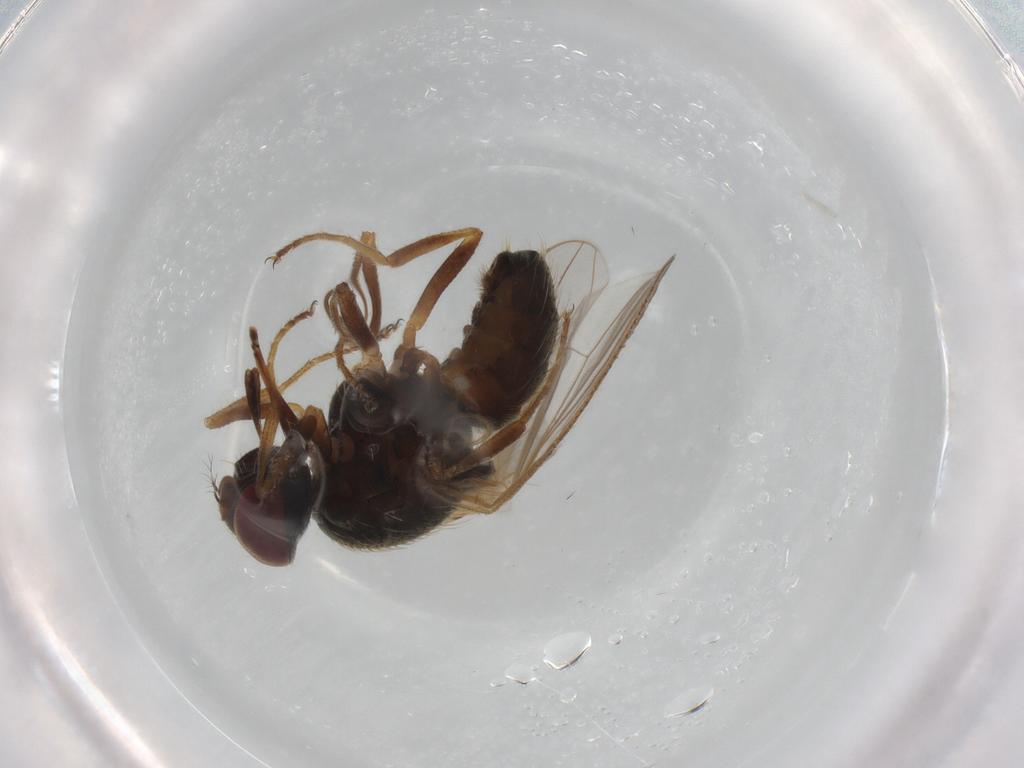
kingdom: Animalia
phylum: Arthropoda
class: Insecta
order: Diptera
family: Muscidae
